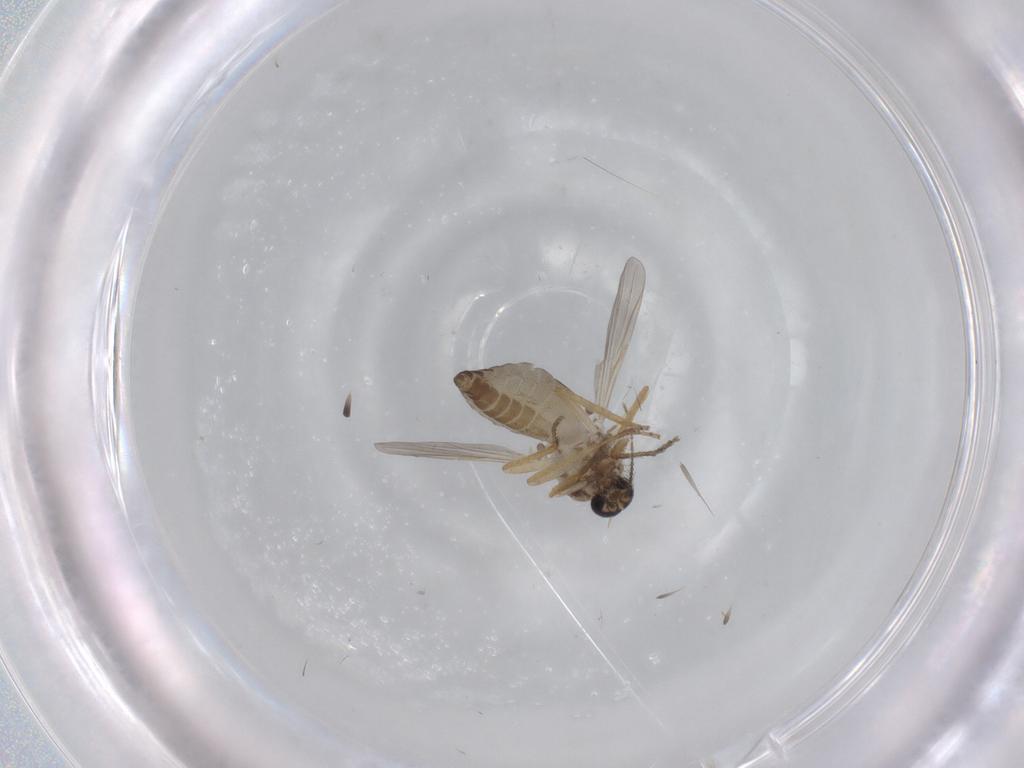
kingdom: Animalia
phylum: Arthropoda
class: Insecta
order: Diptera
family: Ceratopogonidae
